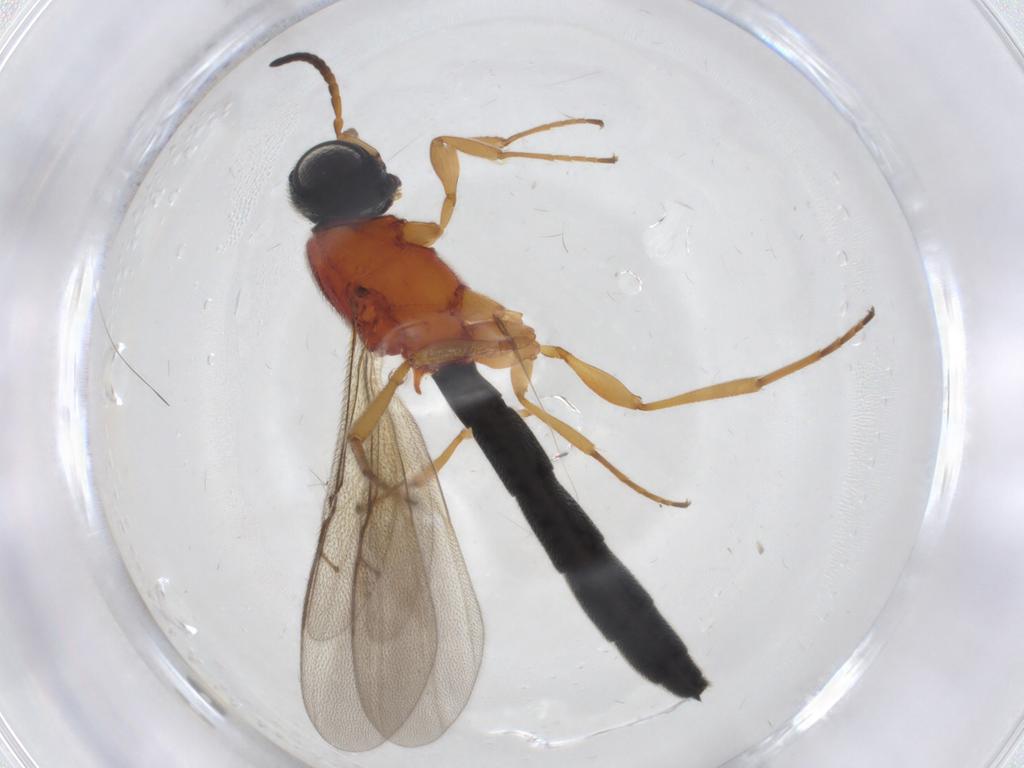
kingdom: Animalia
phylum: Arthropoda
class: Insecta
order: Hymenoptera
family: Scelionidae
